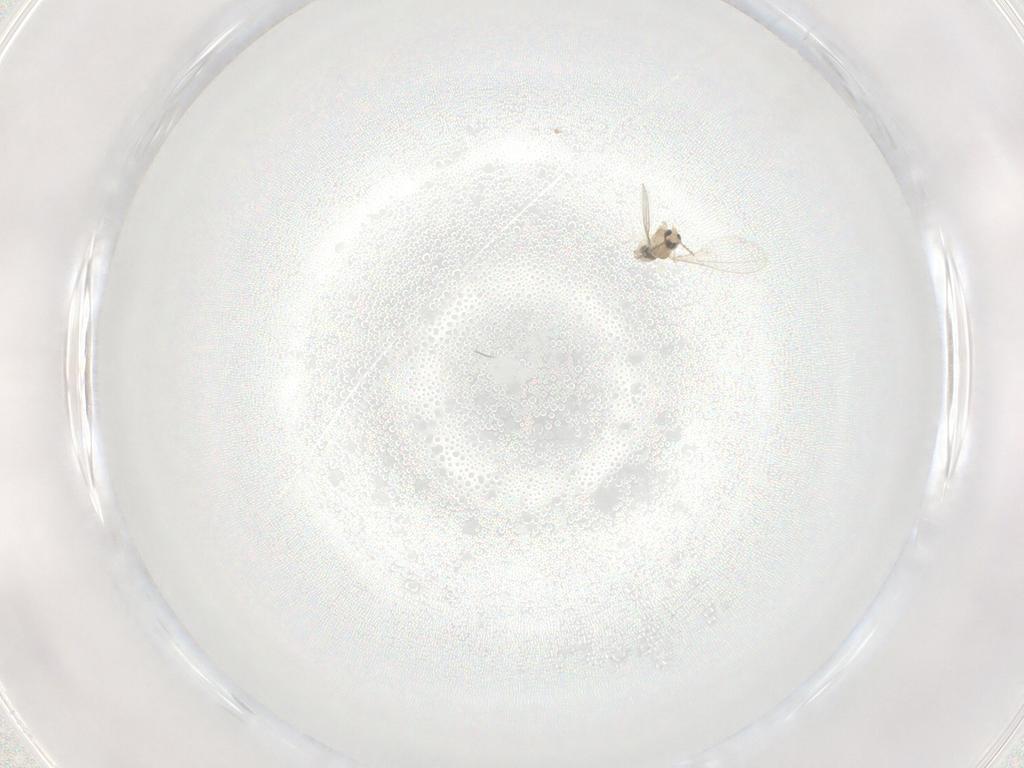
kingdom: Animalia
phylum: Arthropoda
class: Insecta
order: Diptera
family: Cecidomyiidae
